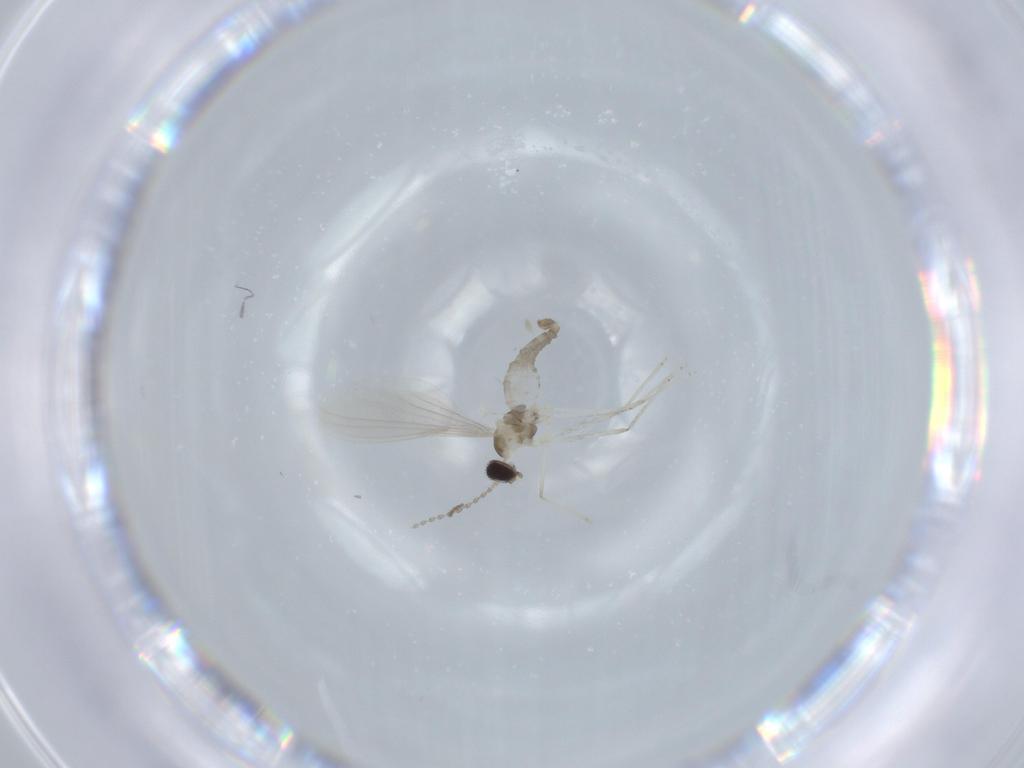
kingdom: Animalia
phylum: Arthropoda
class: Insecta
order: Diptera
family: Cecidomyiidae
